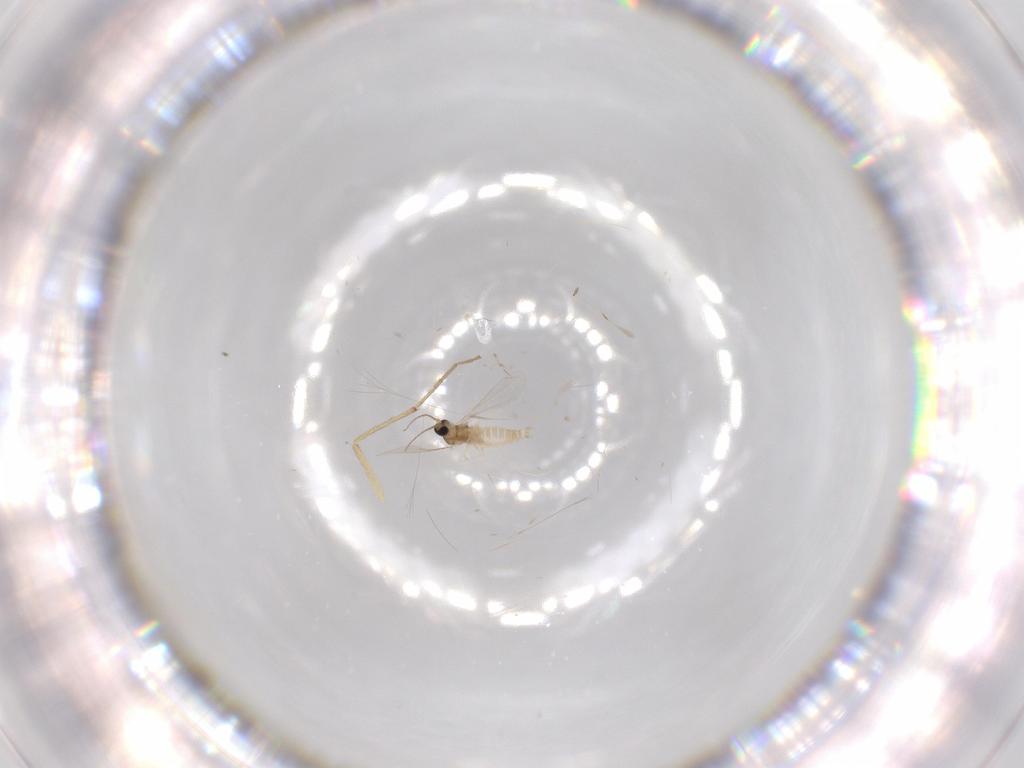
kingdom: Animalia
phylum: Arthropoda
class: Insecta
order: Diptera
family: Chironomidae
